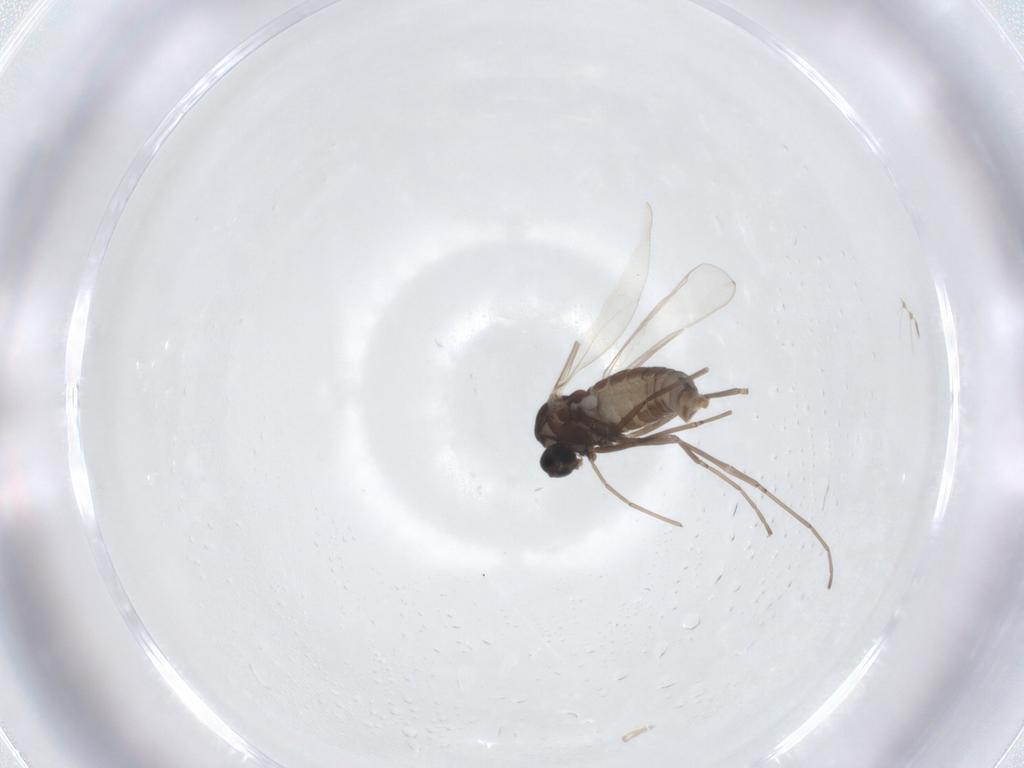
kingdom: Animalia
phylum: Arthropoda
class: Insecta
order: Diptera
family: Cecidomyiidae
